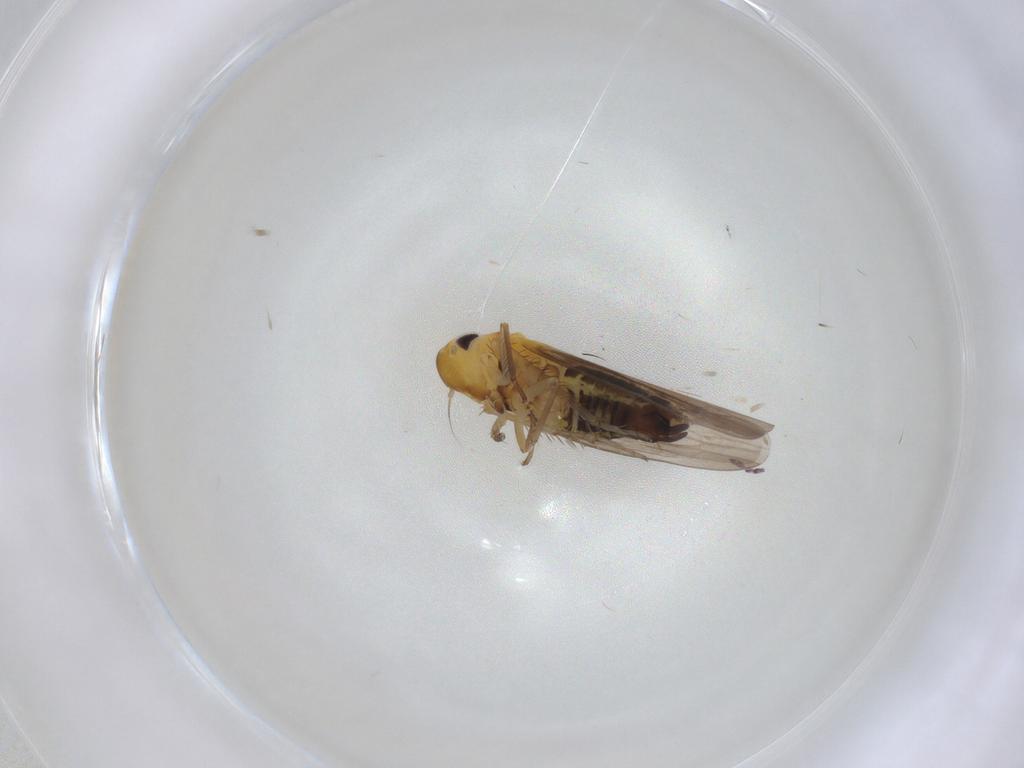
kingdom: Animalia
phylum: Arthropoda
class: Insecta
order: Hemiptera
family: Cicadellidae
